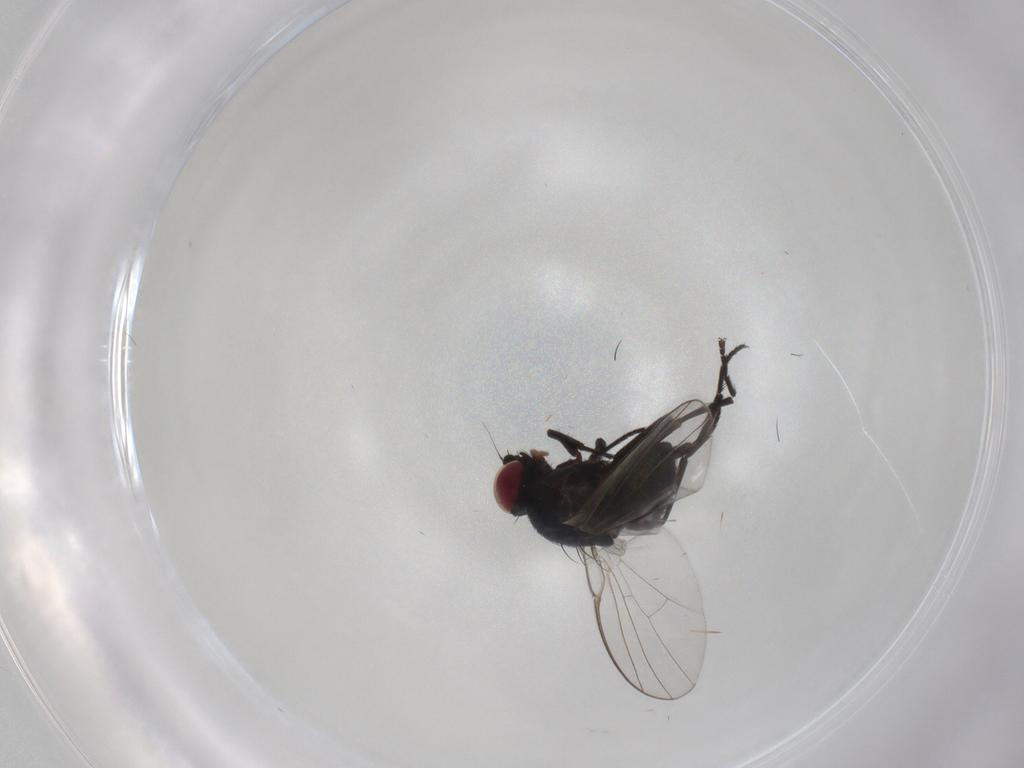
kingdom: Animalia
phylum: Arthropoda
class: Insecta
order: Diptera
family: Agromyzidae
